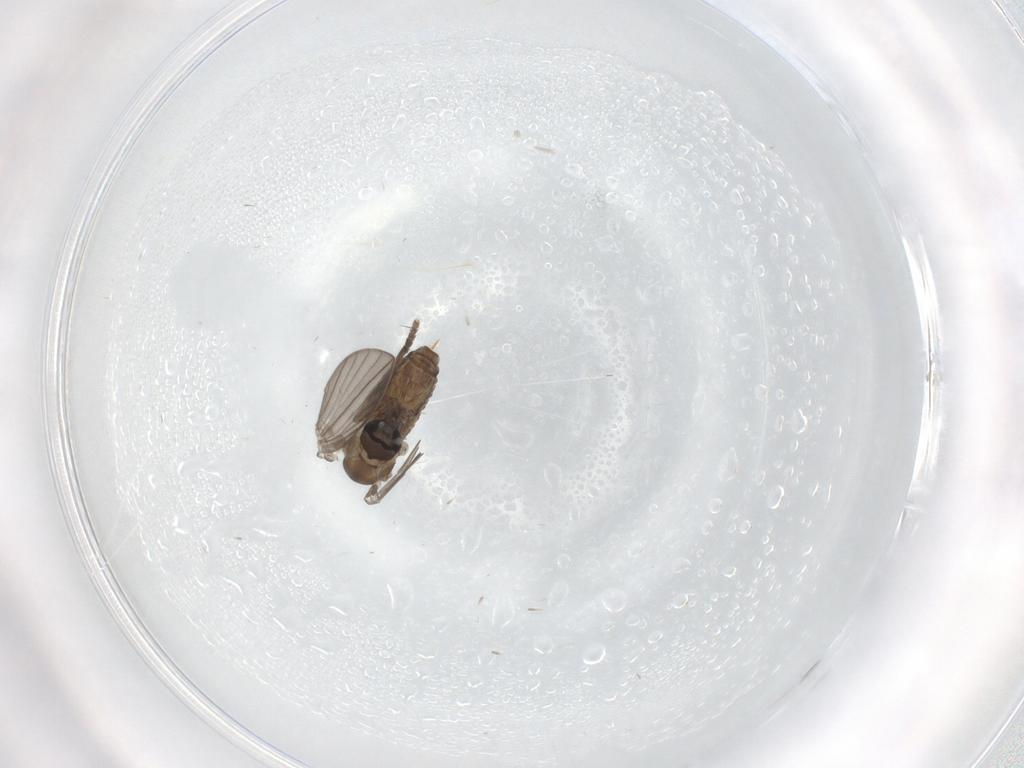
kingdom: Animalia
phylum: Arthropoda
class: Insecta
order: Diptera
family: Psychodidae
